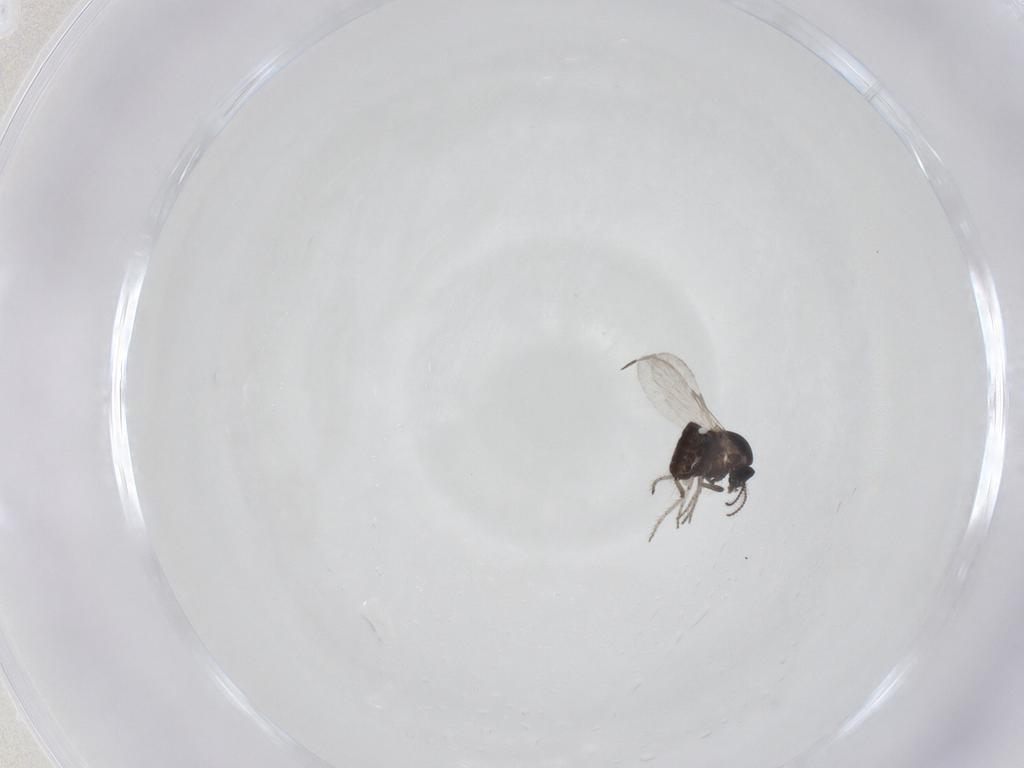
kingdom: Animalia
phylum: Arthropoda
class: Insecta
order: Diptera
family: Ceratopogonidae
